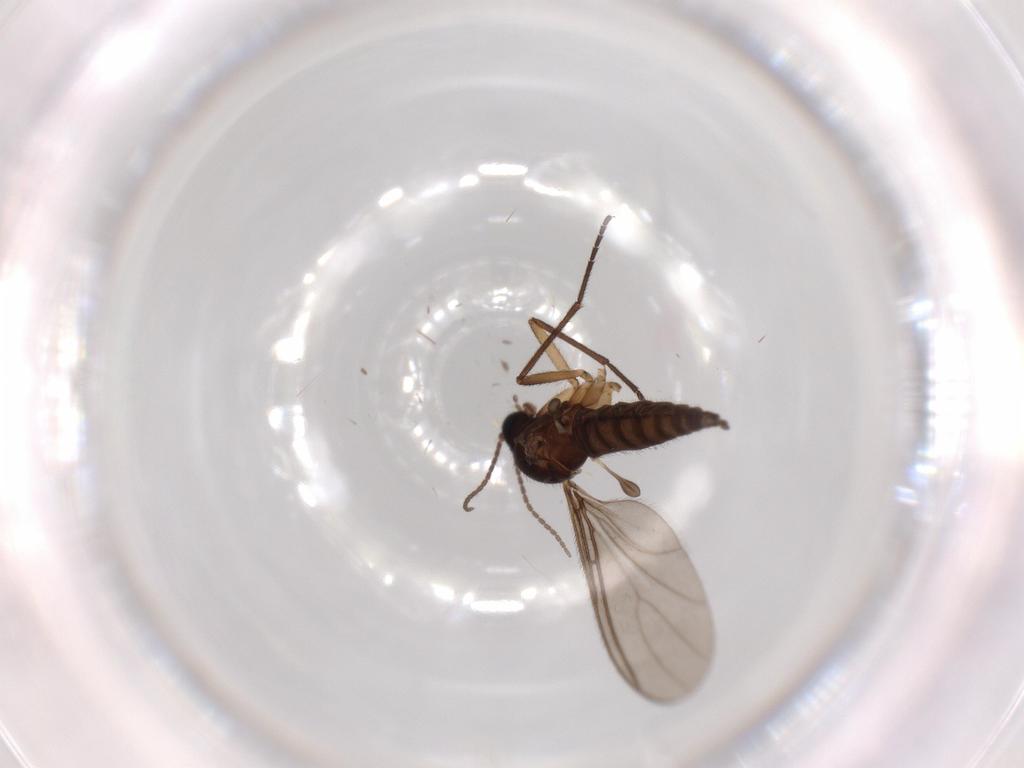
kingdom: Animalia
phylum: Arthropoda
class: Insecta
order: Diptera
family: Sciaridae
